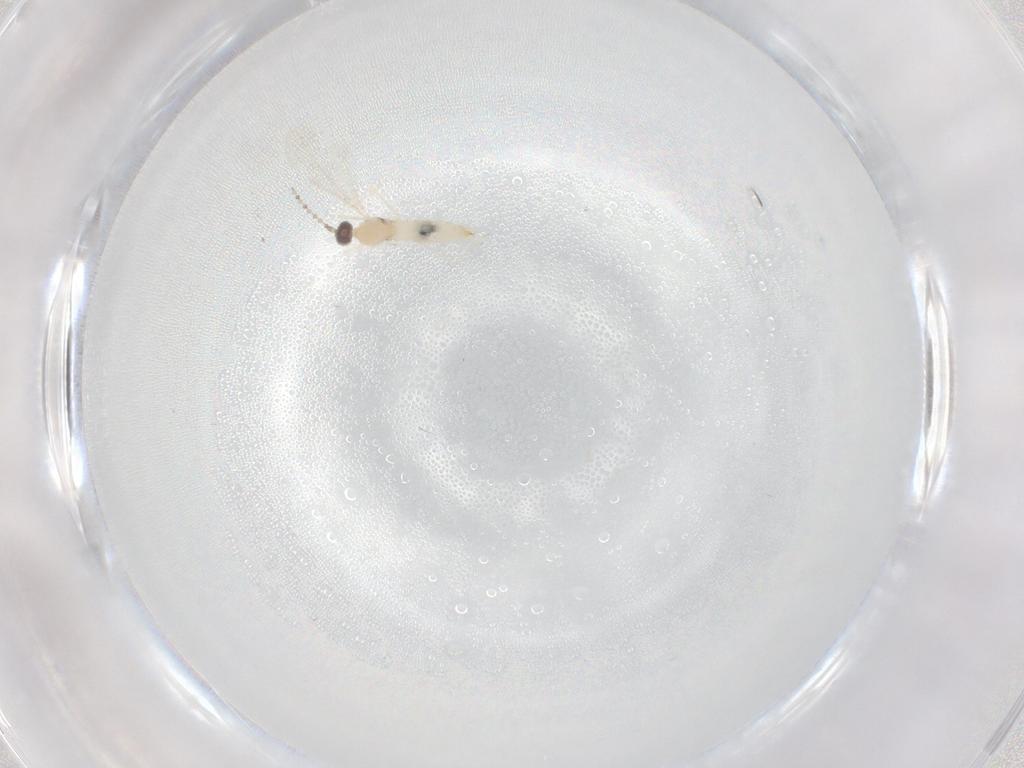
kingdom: Animalia
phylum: Arthropoda
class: Insecta
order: Diptera
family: Cecidomyiidae
